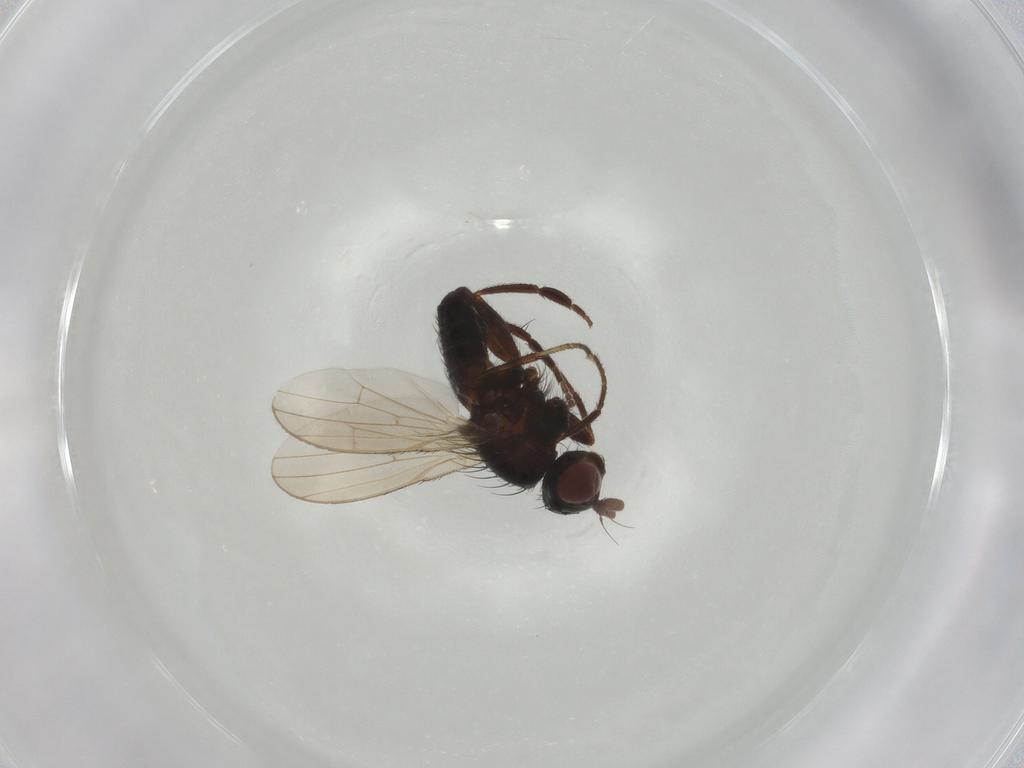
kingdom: Animalia
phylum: Arthropoda
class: Insecta
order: Diptera
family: Heleomyzidae
